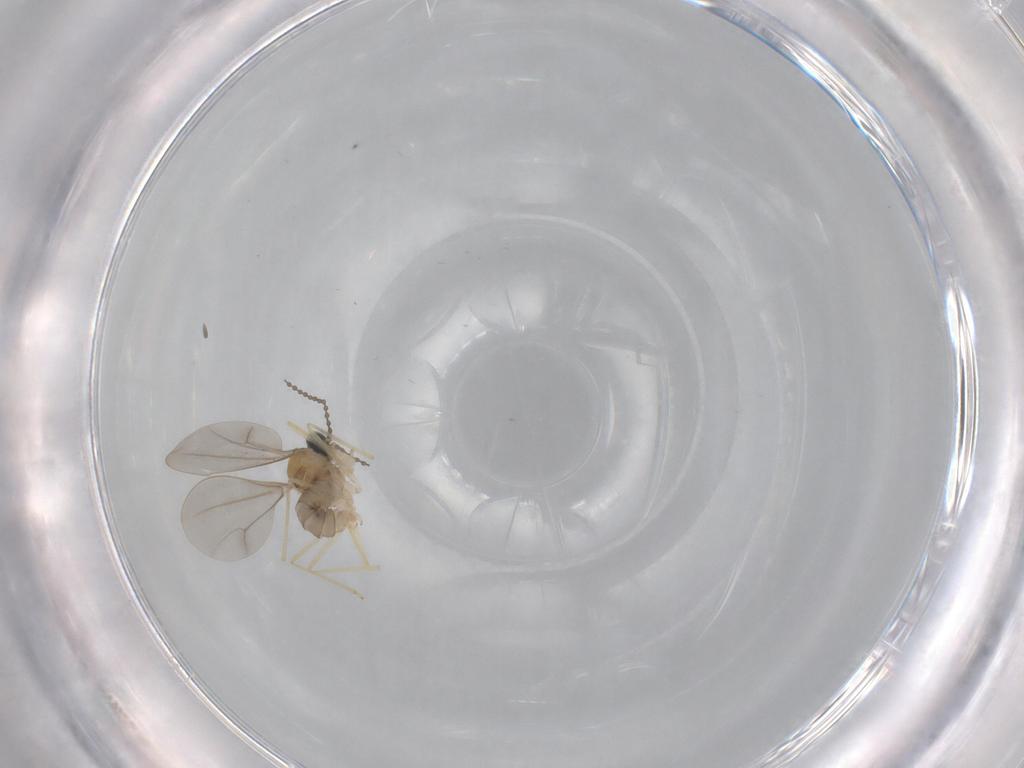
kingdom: Animalia
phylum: Arthropoda
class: Insecta
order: Diptera
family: Cecidomyiidae
